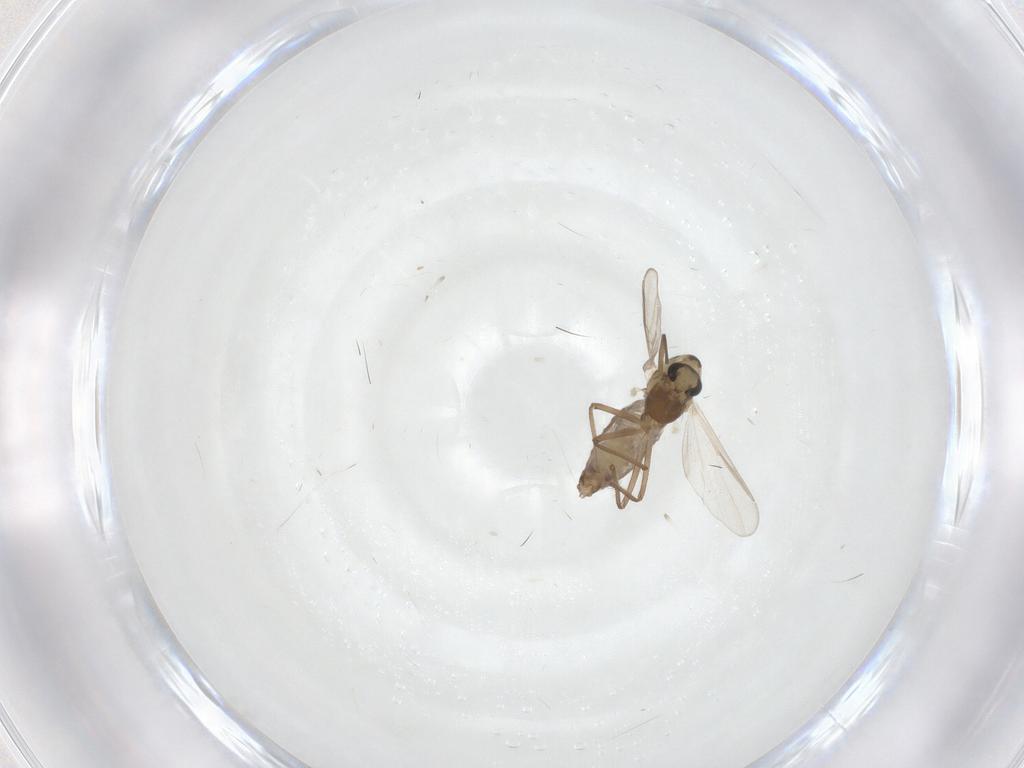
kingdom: Animalia
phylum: Arthropoda
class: Insecta
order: Diptera
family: Chironomidae
